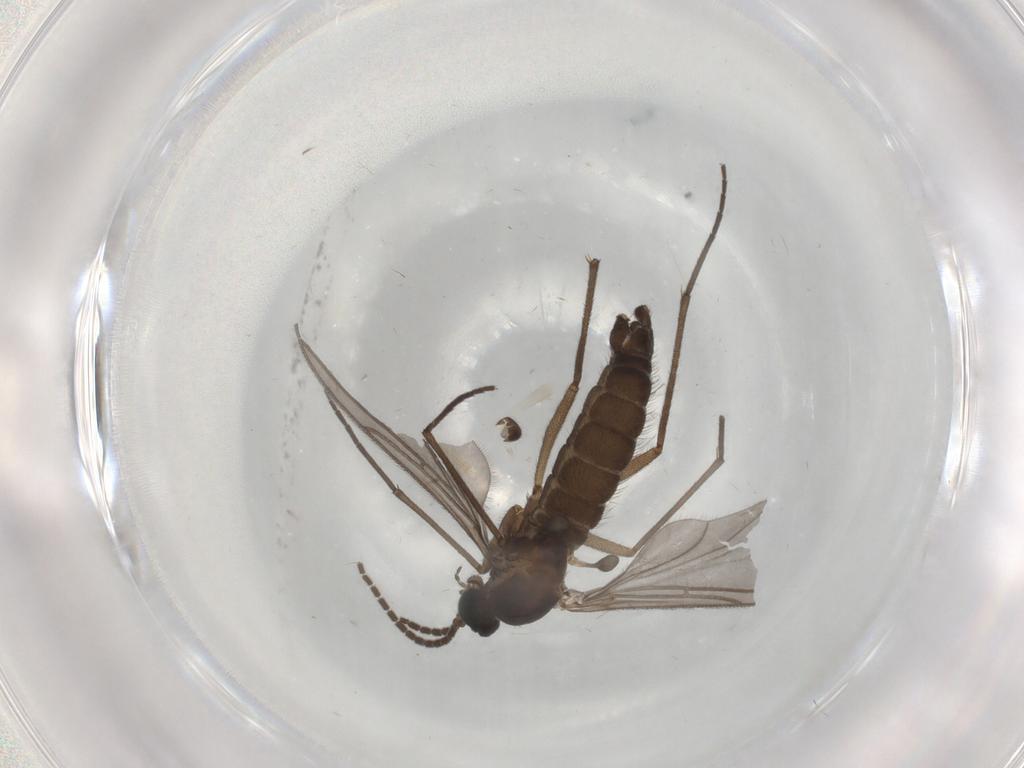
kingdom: Animalia
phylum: Arthropoda
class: Insecta
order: Diptera
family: Sciaridae
